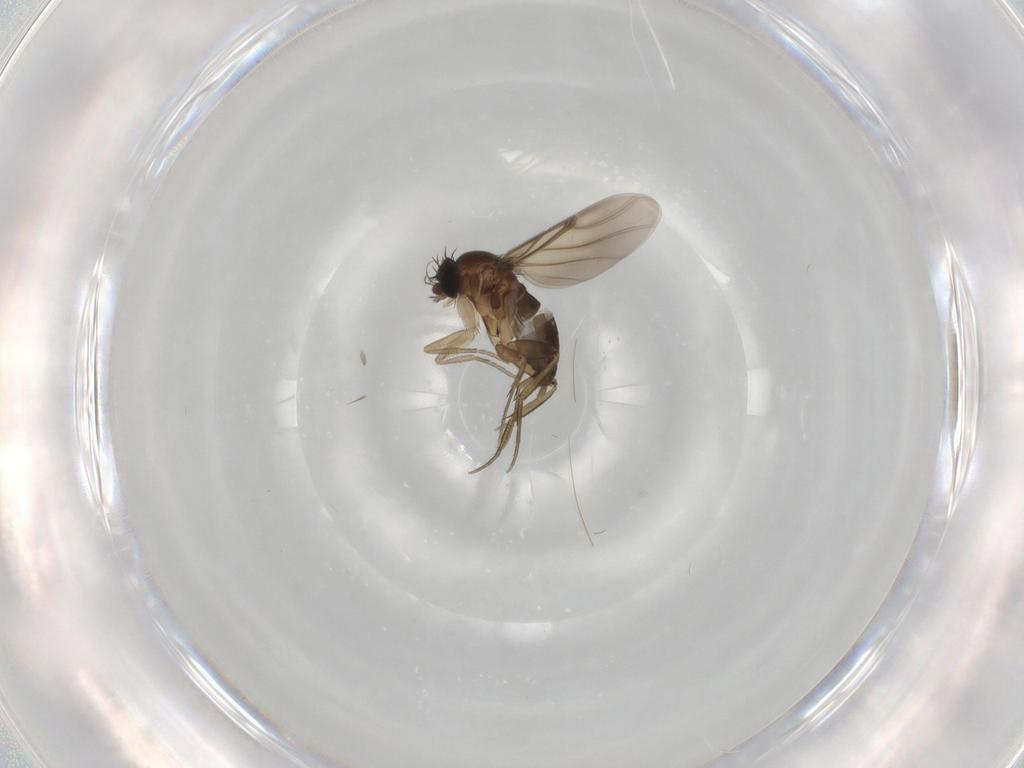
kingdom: Animalia
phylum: Arthropoda
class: Insecta
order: Diptera
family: Phoridae
